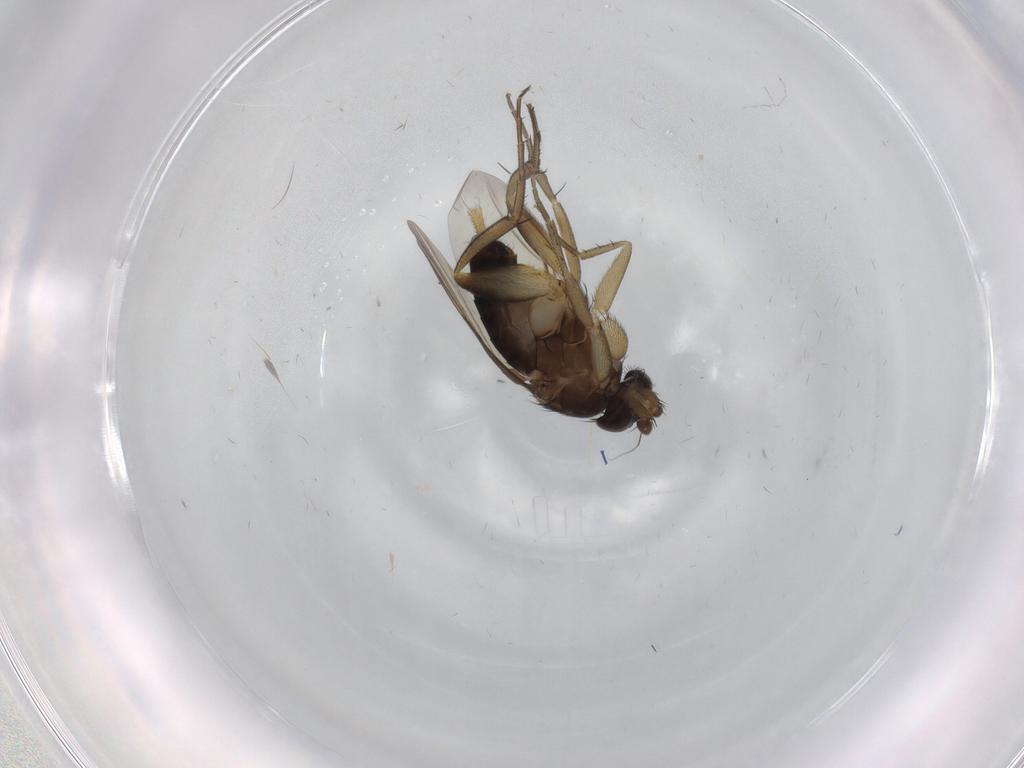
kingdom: Animalia
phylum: Arthropoda
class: Insecta
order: Diptera
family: Phoridae
